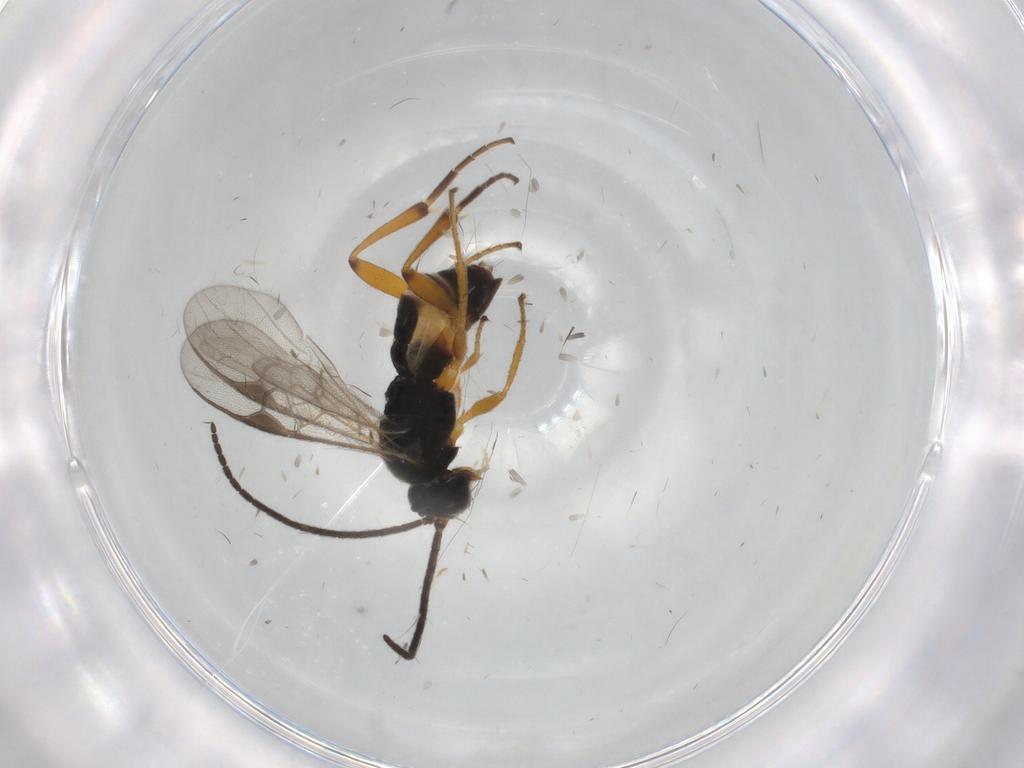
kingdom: Animalia
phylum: Arthropoda
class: Insecta
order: Hymenoptera
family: Braconidae
